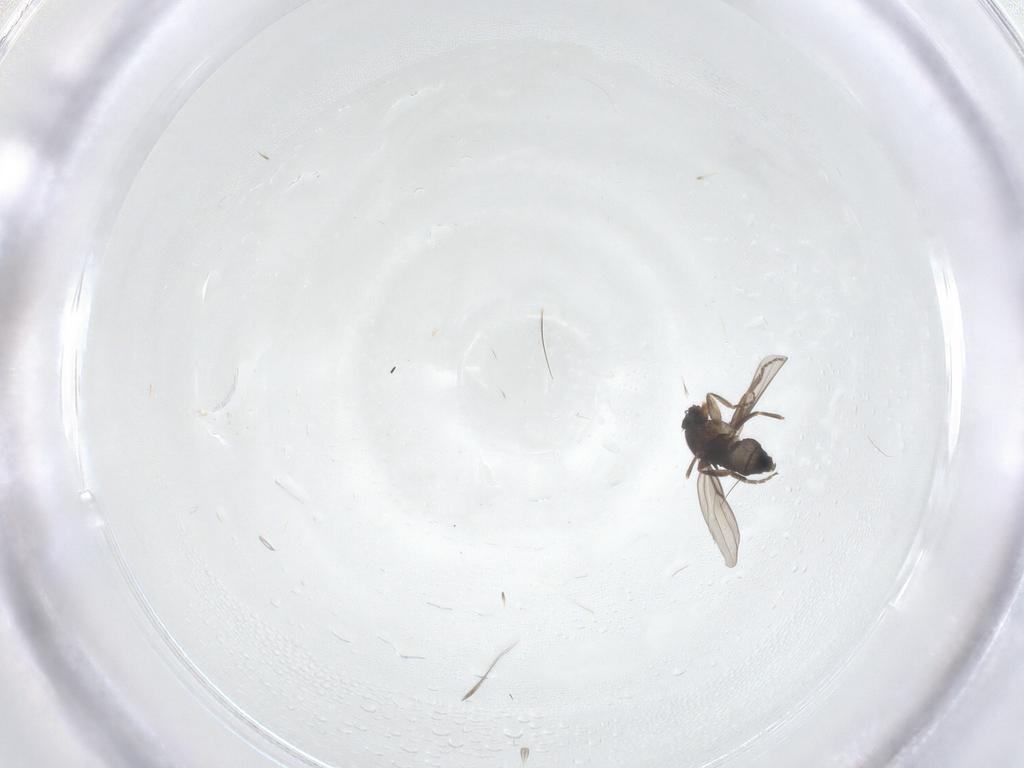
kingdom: Animalia
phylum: Arthropoda
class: Insecta
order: Diptera
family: Phoridae
